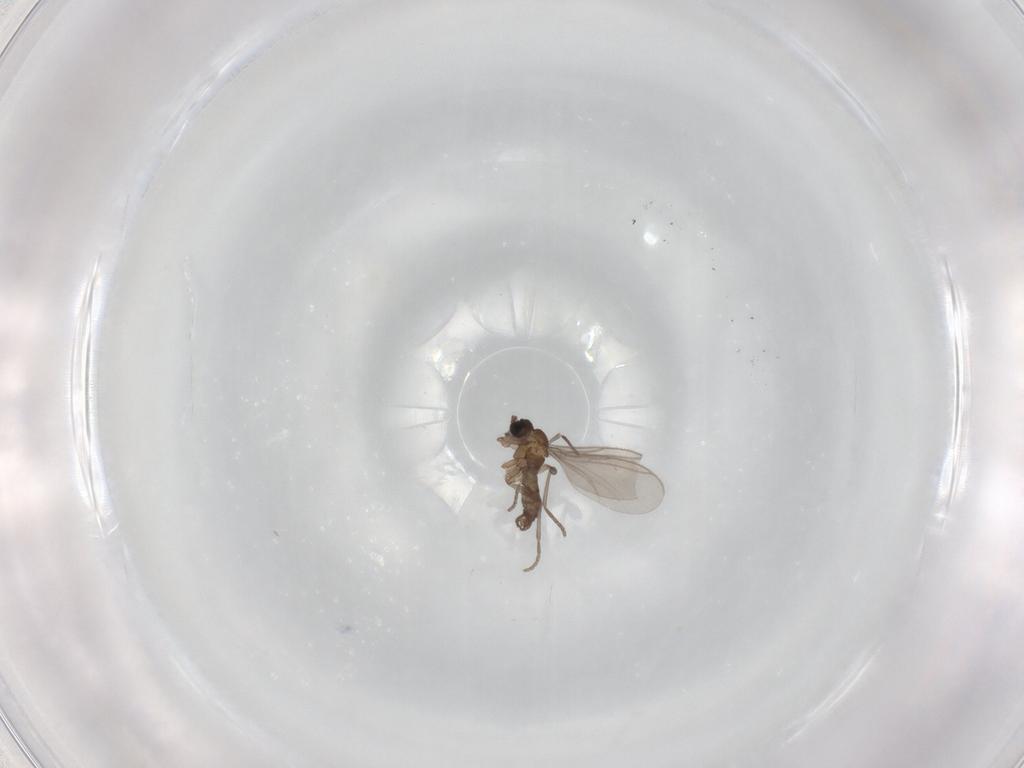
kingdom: Animalia
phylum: Arthropoda
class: Insecta
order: Diptera
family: Sciaridae
